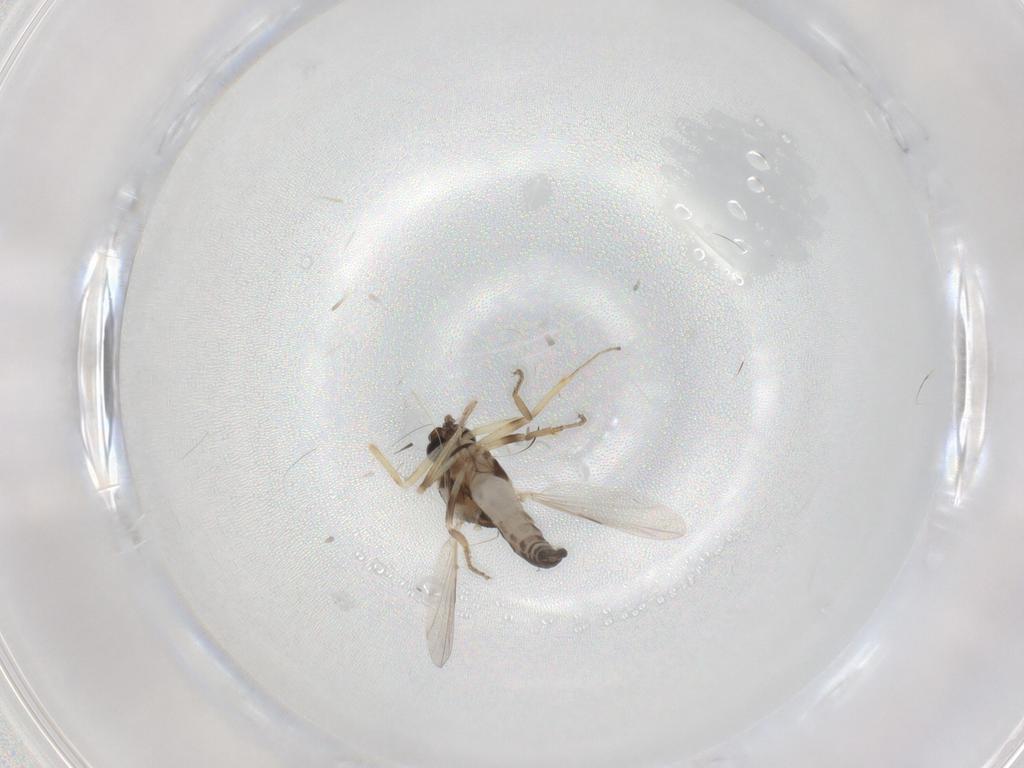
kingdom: Animalia
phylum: Arthropoda
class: Insecta
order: Diptera
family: Ceratopogonidae
